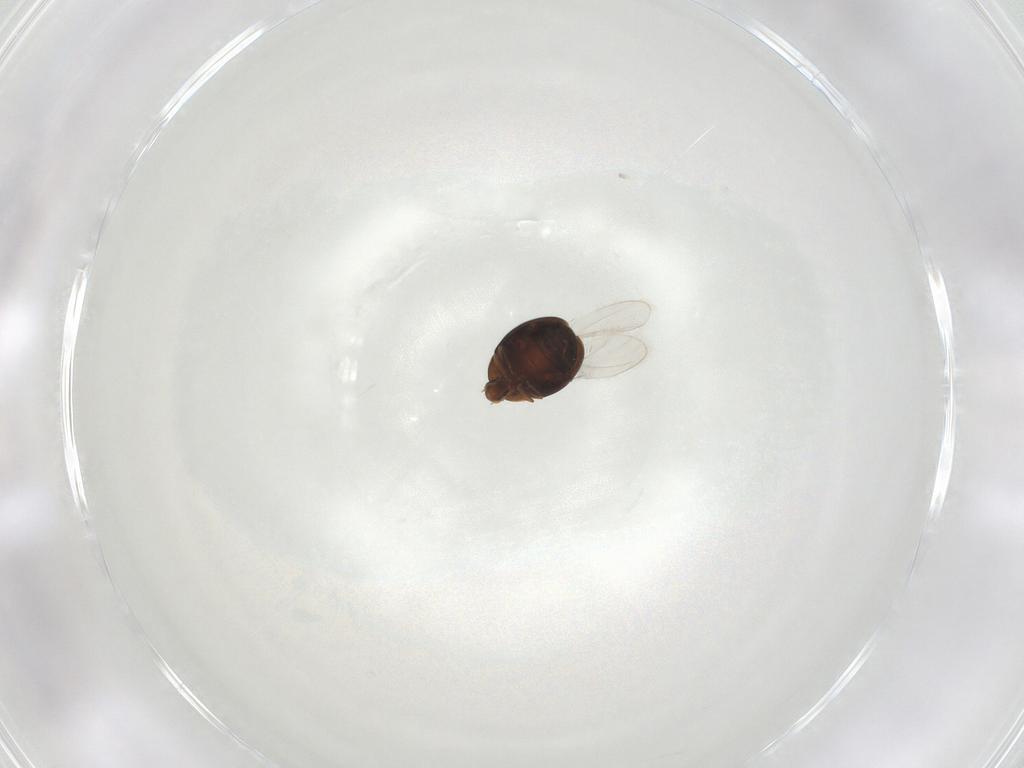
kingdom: Animalia
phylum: Arthropoda
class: Insecta
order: Coleoptera
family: Corylophidae
